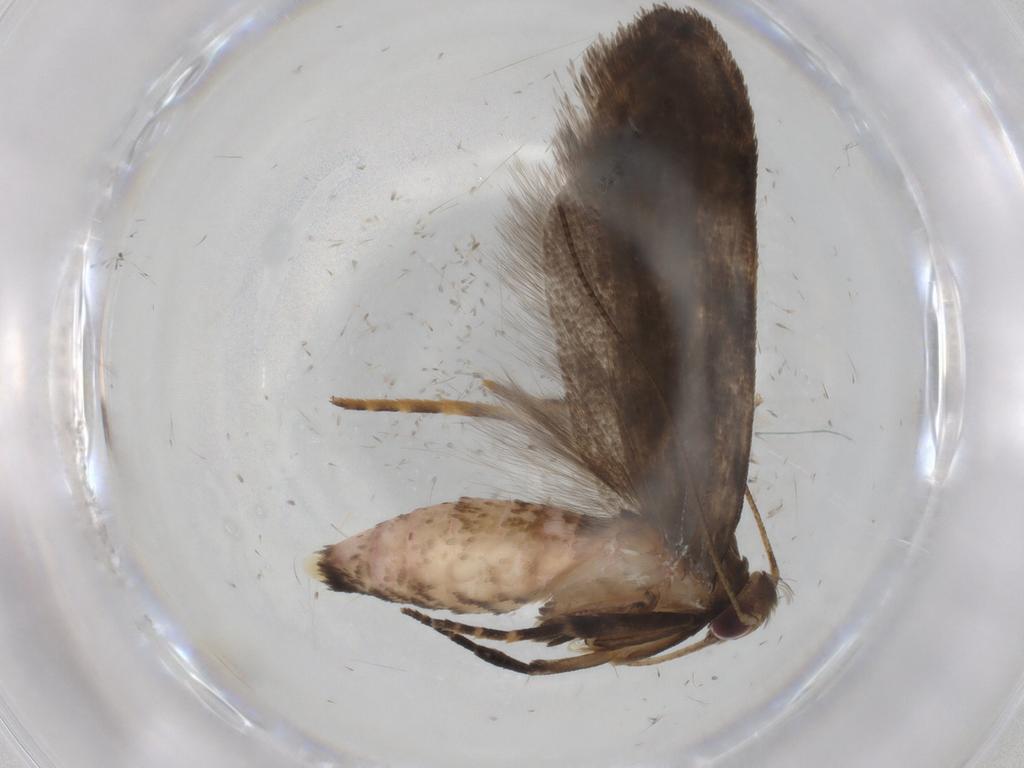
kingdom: Animalia
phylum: Arthropoda
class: Insecta
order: Lepidoptera
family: Gelechiidae
